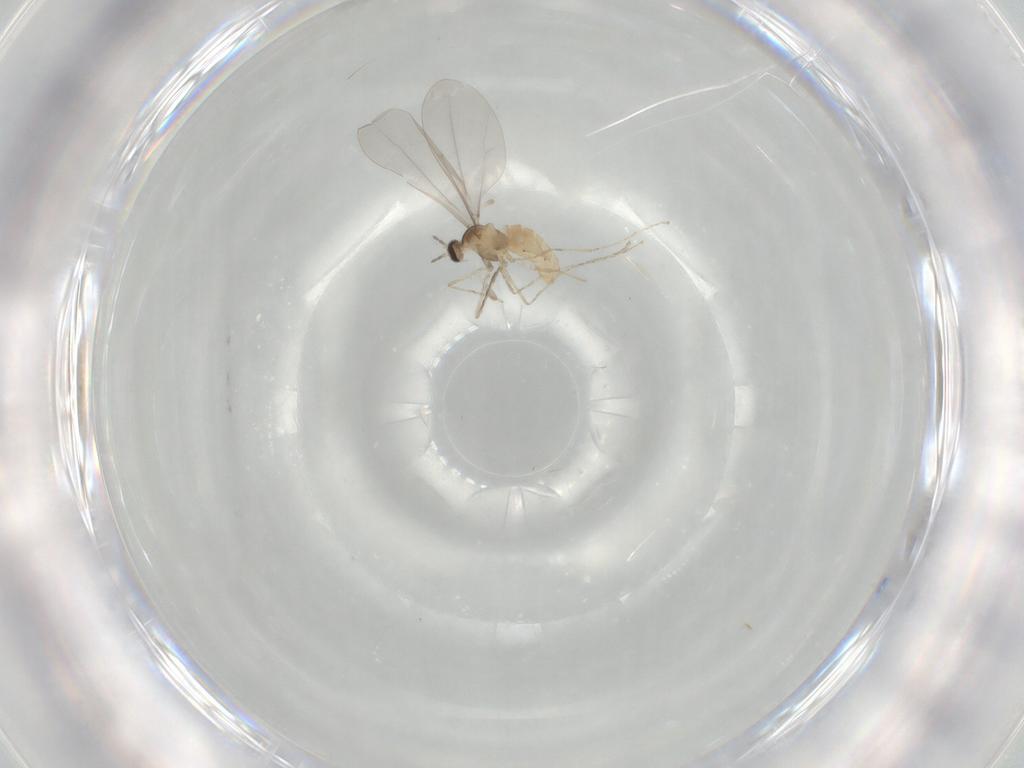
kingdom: Animalia
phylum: Arthropoda
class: Insecta
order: Diptera
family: Cecidomyiidae
